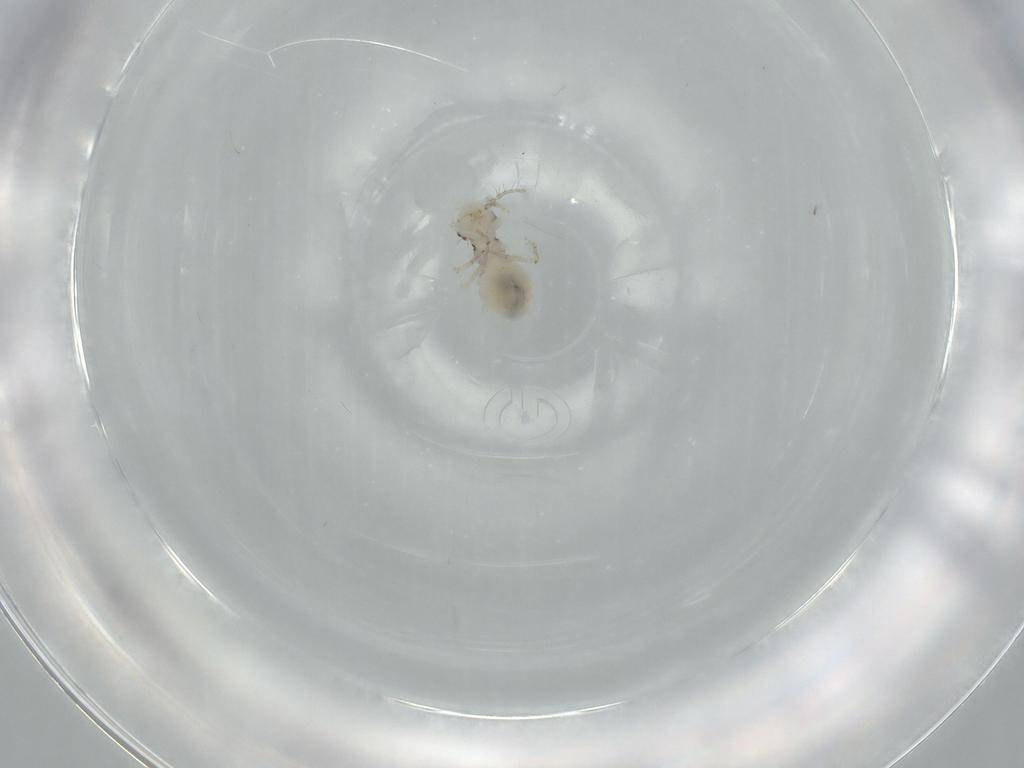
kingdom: Animalia
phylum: Arthropoda
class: Insecta
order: Psocodea
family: Pseudocaeciliidae
